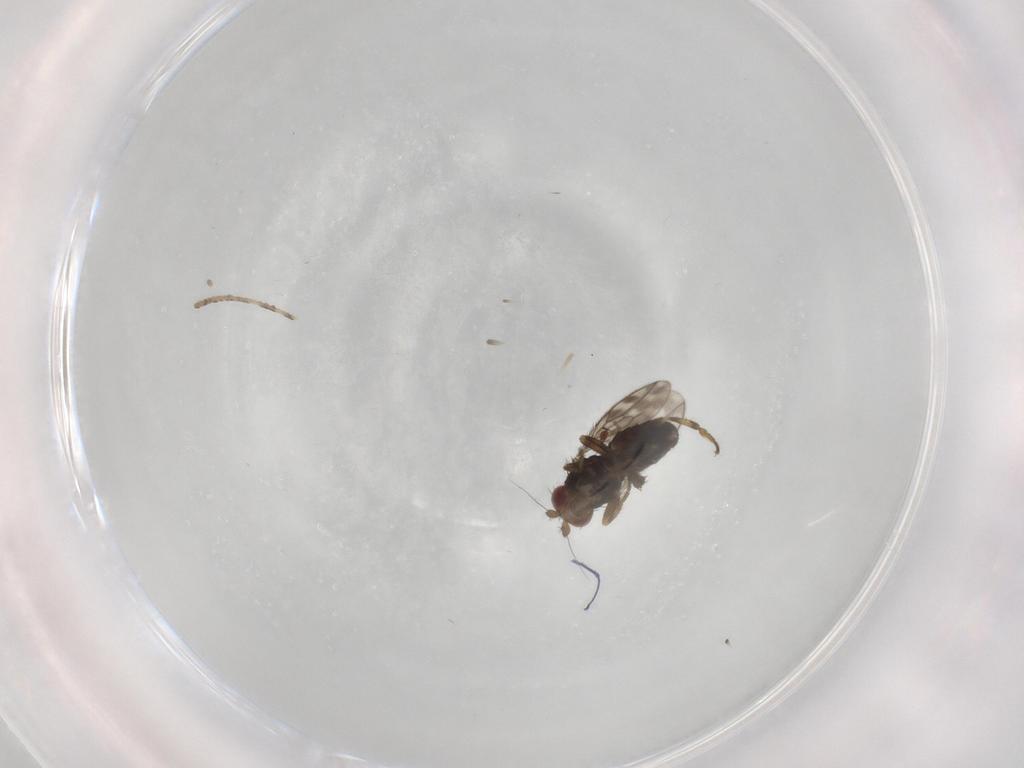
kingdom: Animalia
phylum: Arthropoda
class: Insecta
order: Diptera
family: Sphaeroceridae
